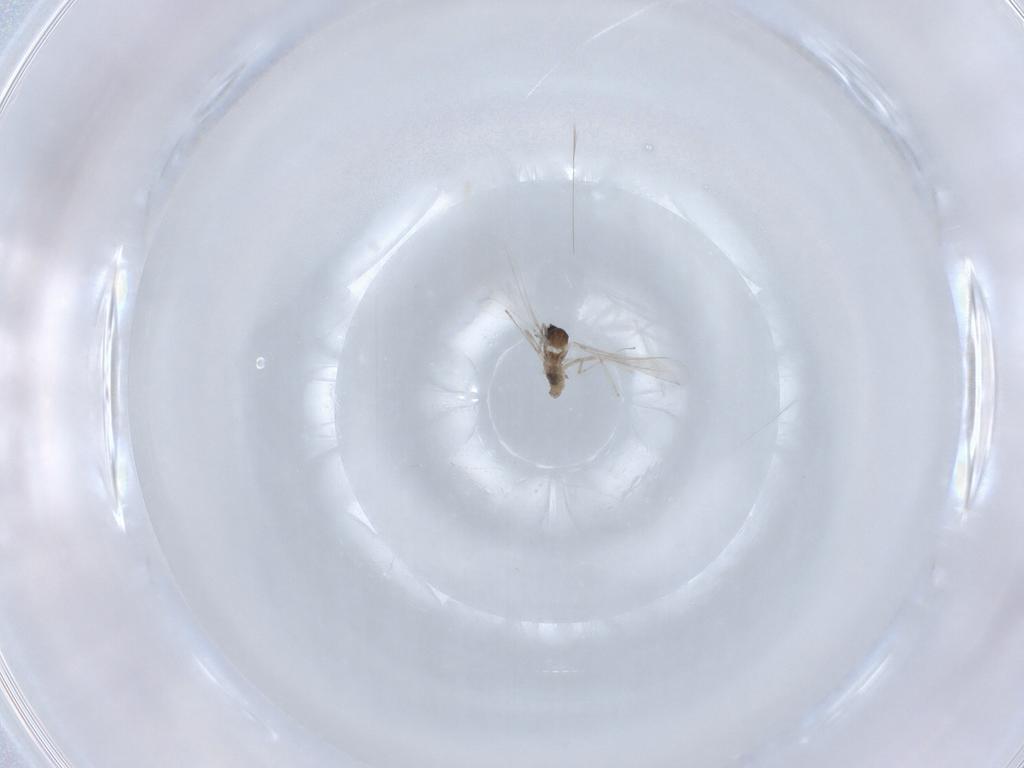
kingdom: Animalia
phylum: Arthropoda
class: Insecta
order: Diptera
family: Cecidomyiidae
